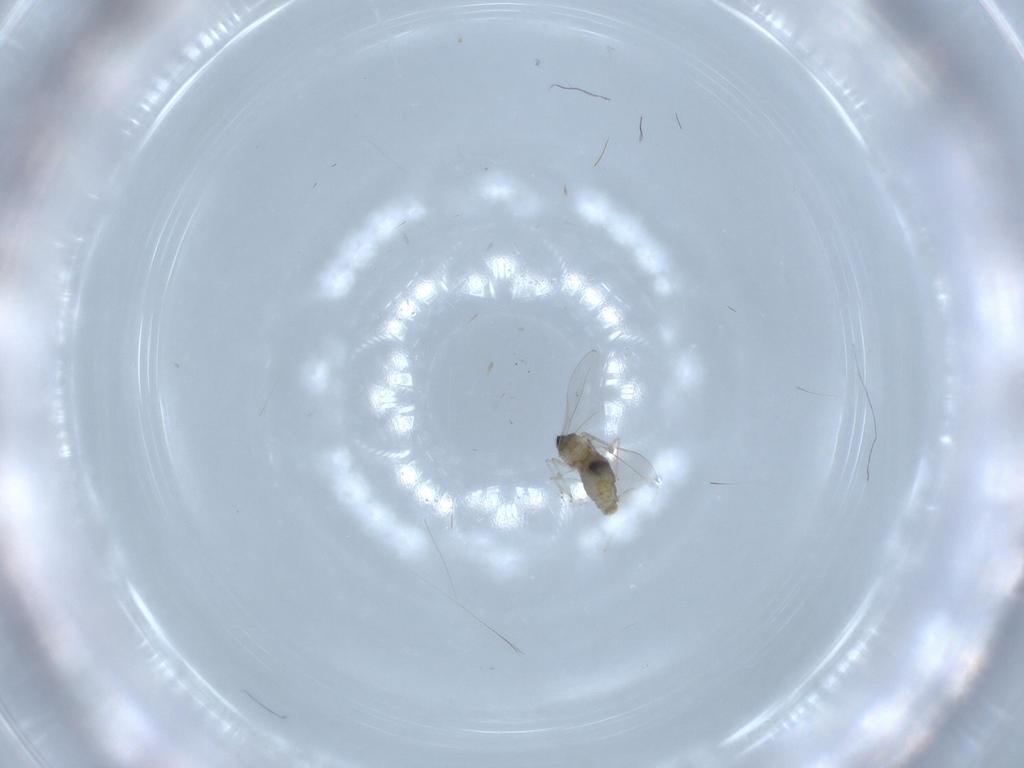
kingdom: Animalia
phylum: Arthropoda
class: Insecta
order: Diptera
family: Cecidomyiidae
